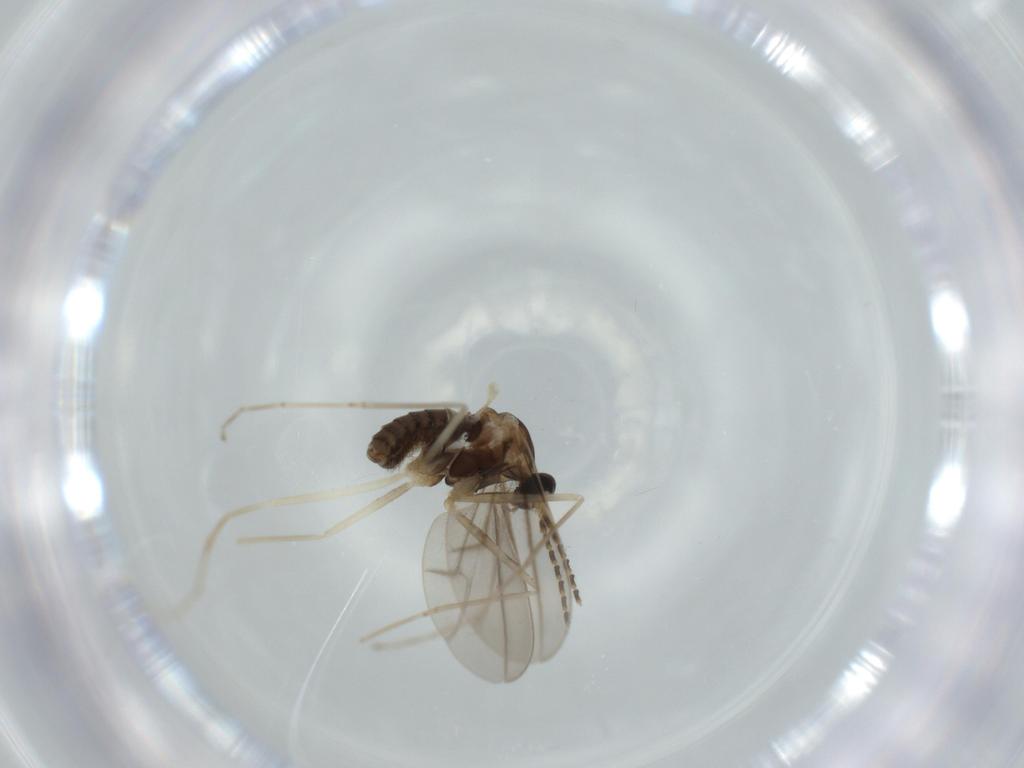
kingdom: Animalia
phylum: Arthropoda
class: Insecta
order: Diptera
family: Cecidomyiidae
